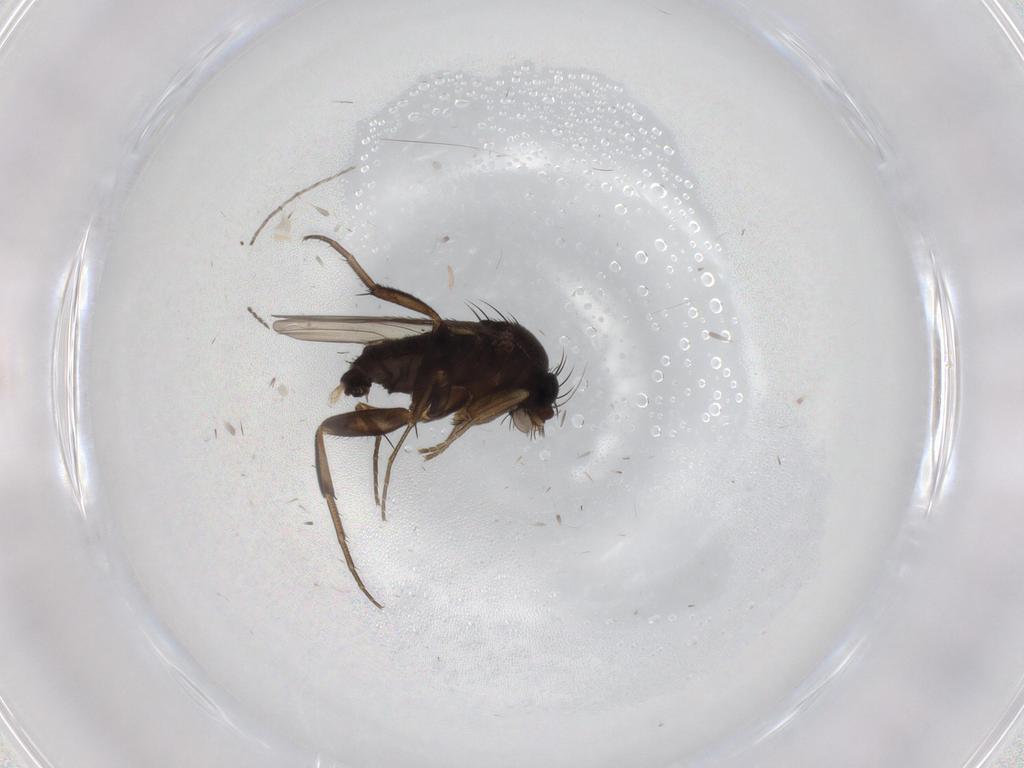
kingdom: Animalia
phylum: Arthropoda
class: Insecta
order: Diptera
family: Phoridae
